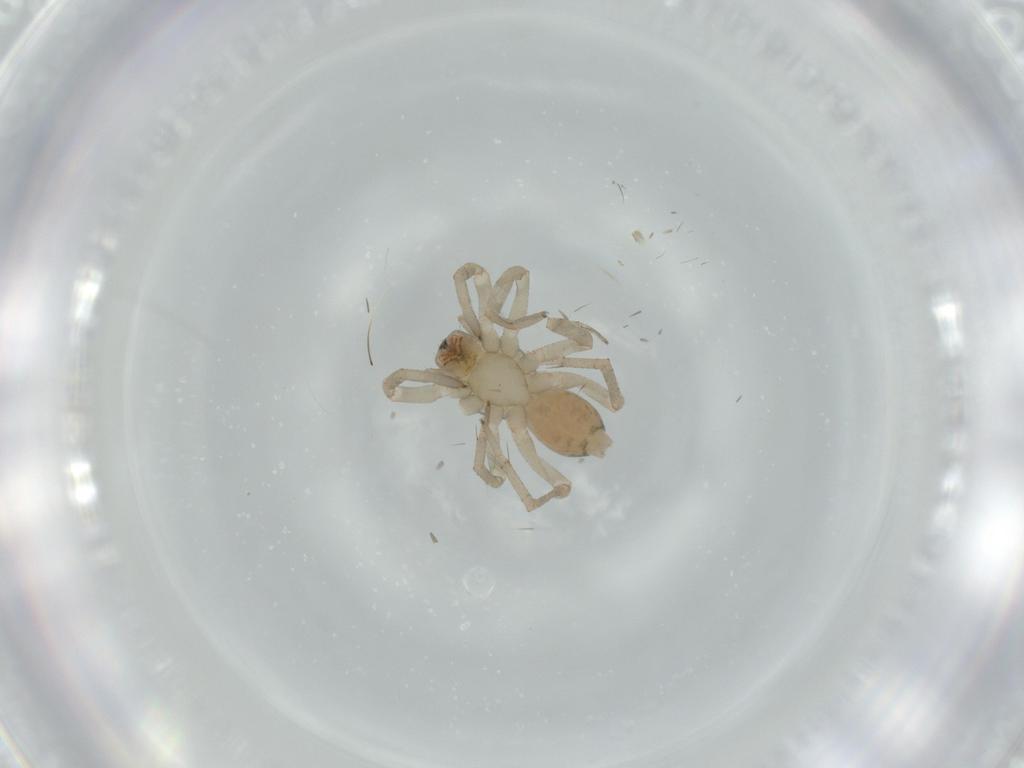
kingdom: Animalia
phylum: Arthropoda
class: Arachnida
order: Araneae
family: Clubionidae
